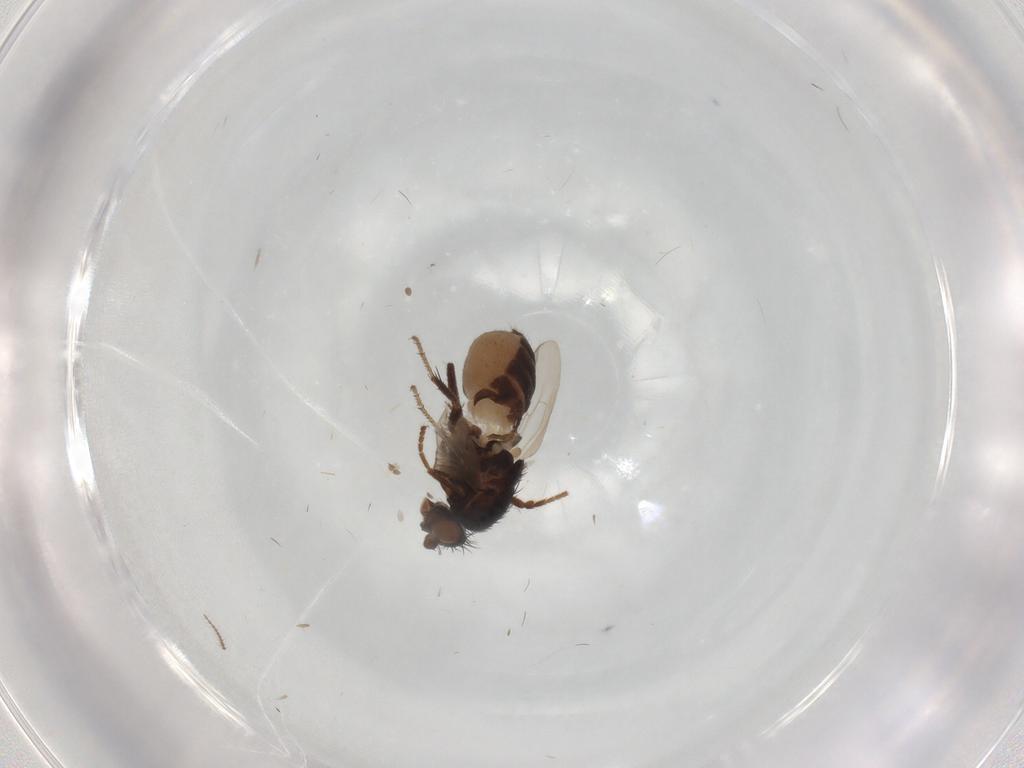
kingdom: Animalia
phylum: Arthropoda
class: Insecta
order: Diptera
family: Sphaeroceridae
